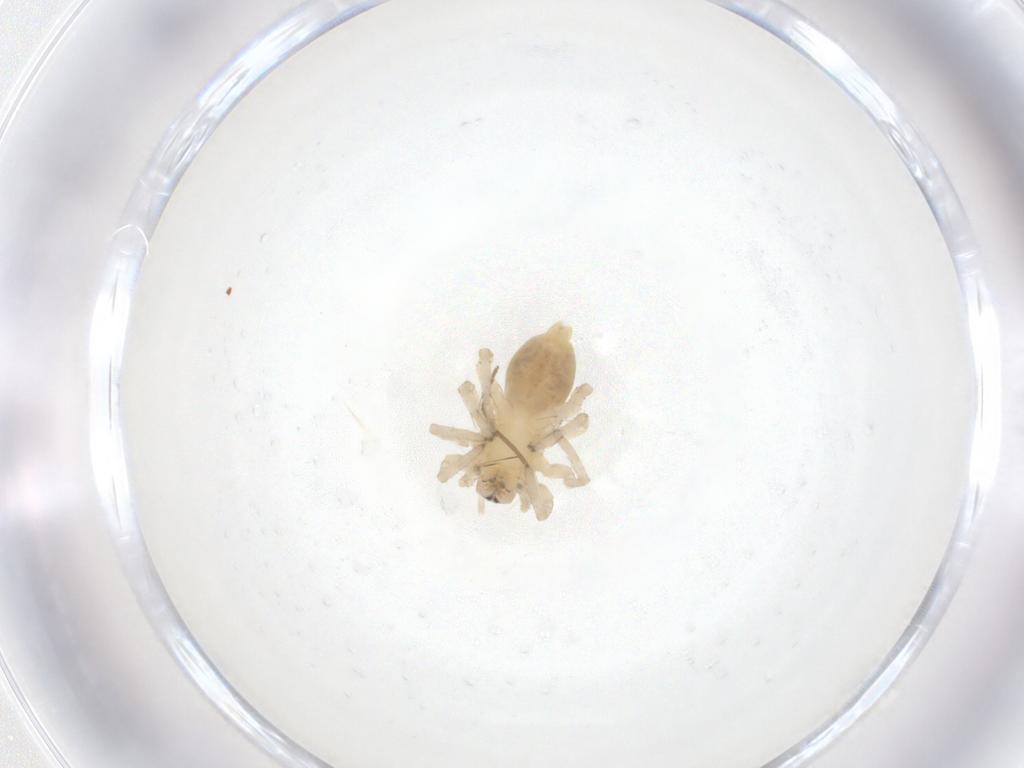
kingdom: Animalia
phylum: Arthropoda
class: Arachnida
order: Araneae
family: Clubionidae
